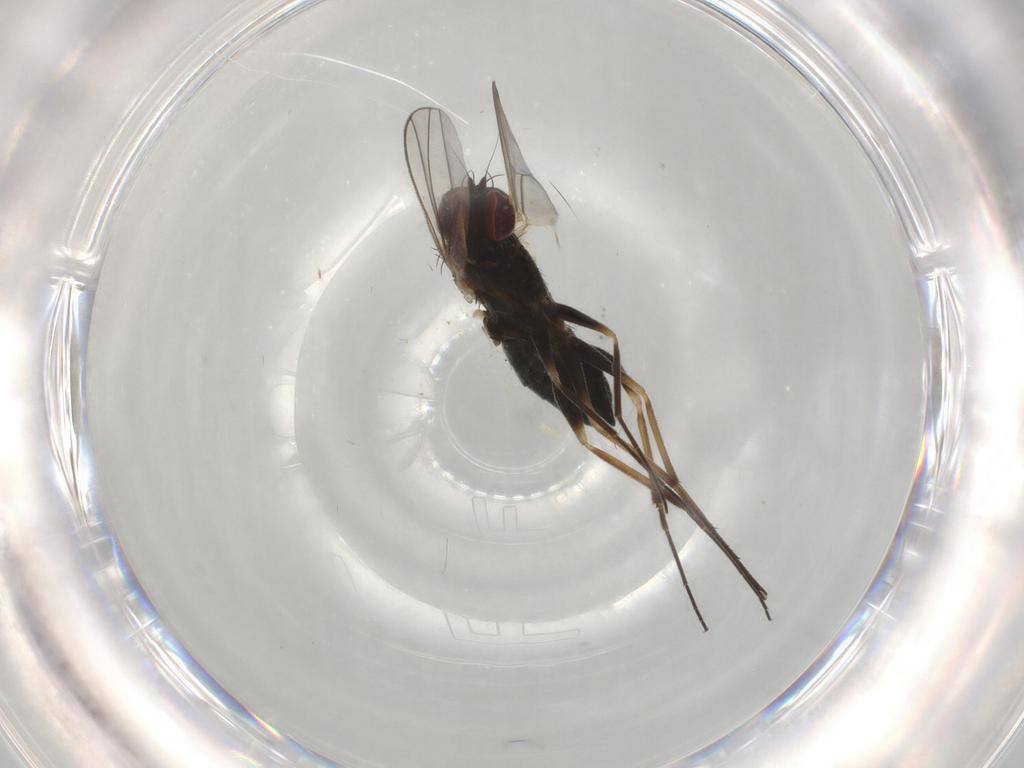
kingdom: Animalia
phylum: Arthropoda
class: Insecta
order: Diptera
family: Dolichopodidae
